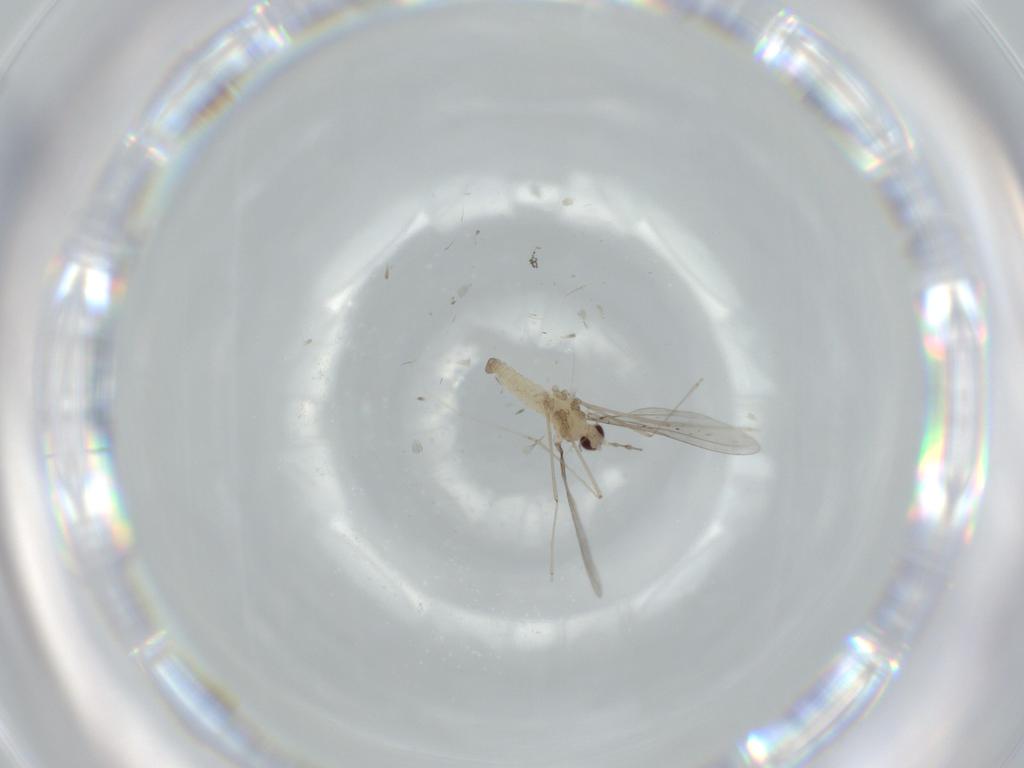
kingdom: Animalia
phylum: Arthropoda
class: Insecta
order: Diptera
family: Cecidomyiidae
